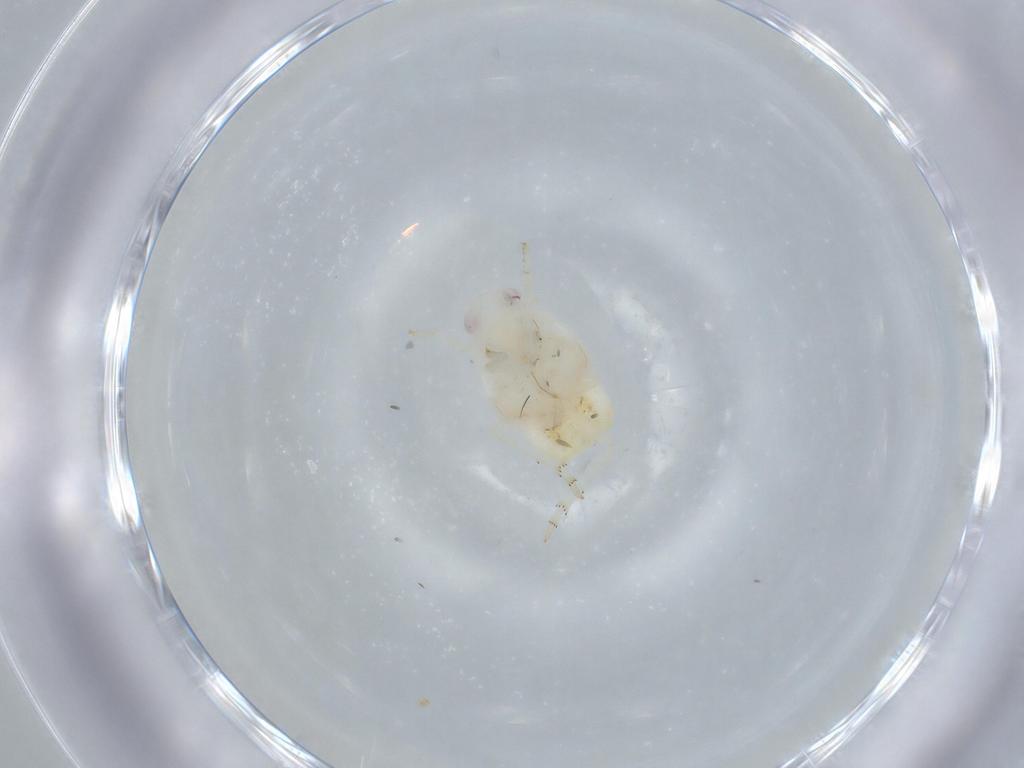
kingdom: Animalia
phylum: Arthropoda
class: Insecta
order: Hemiptera
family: Flatidae
